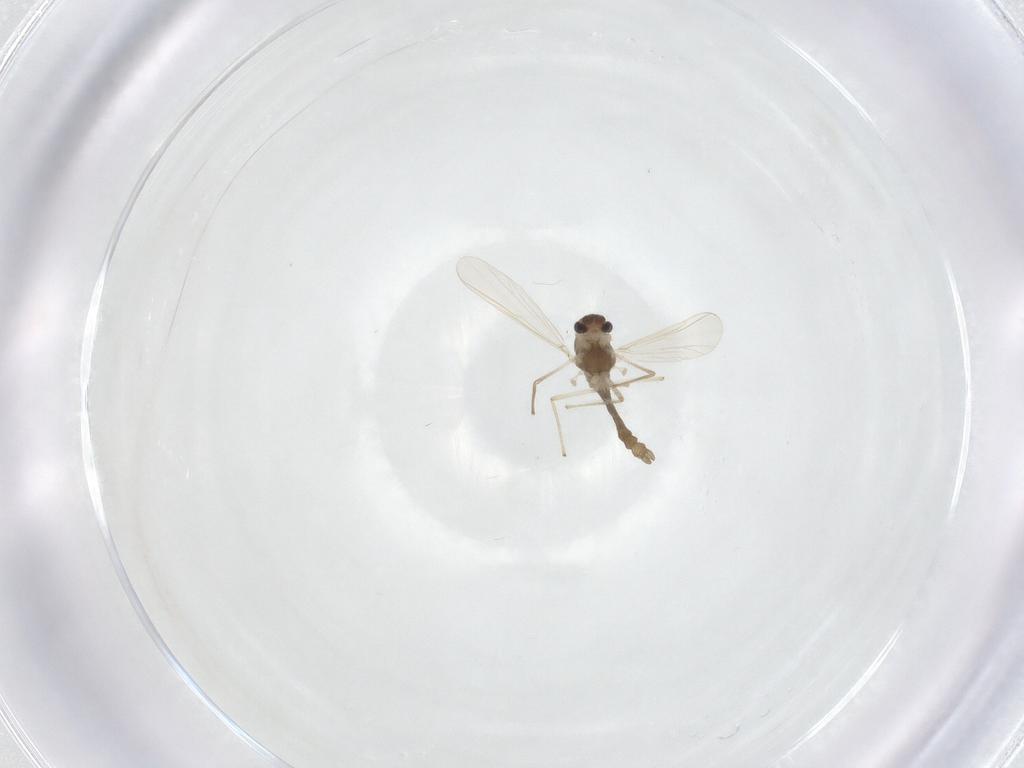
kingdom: Animalia
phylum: Arthropoda
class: Insecta
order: Diptera
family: Chironomidae
